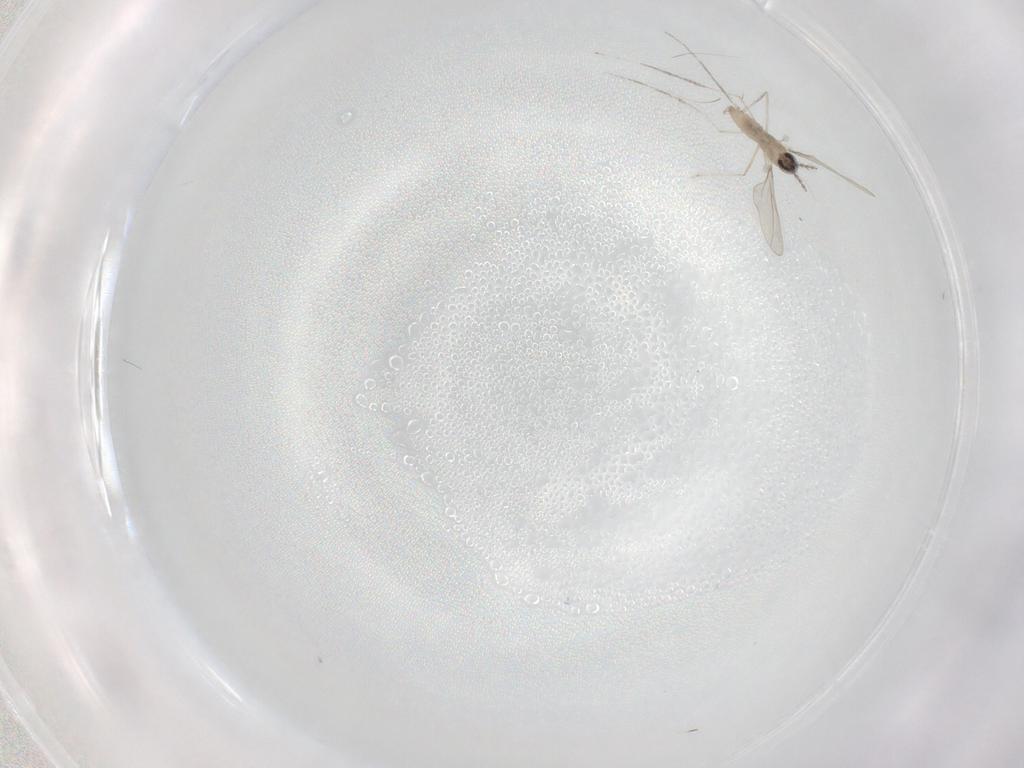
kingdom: Animalia
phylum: Arthropoda
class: Insecta
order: Diptera
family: Cecidomyiidae
